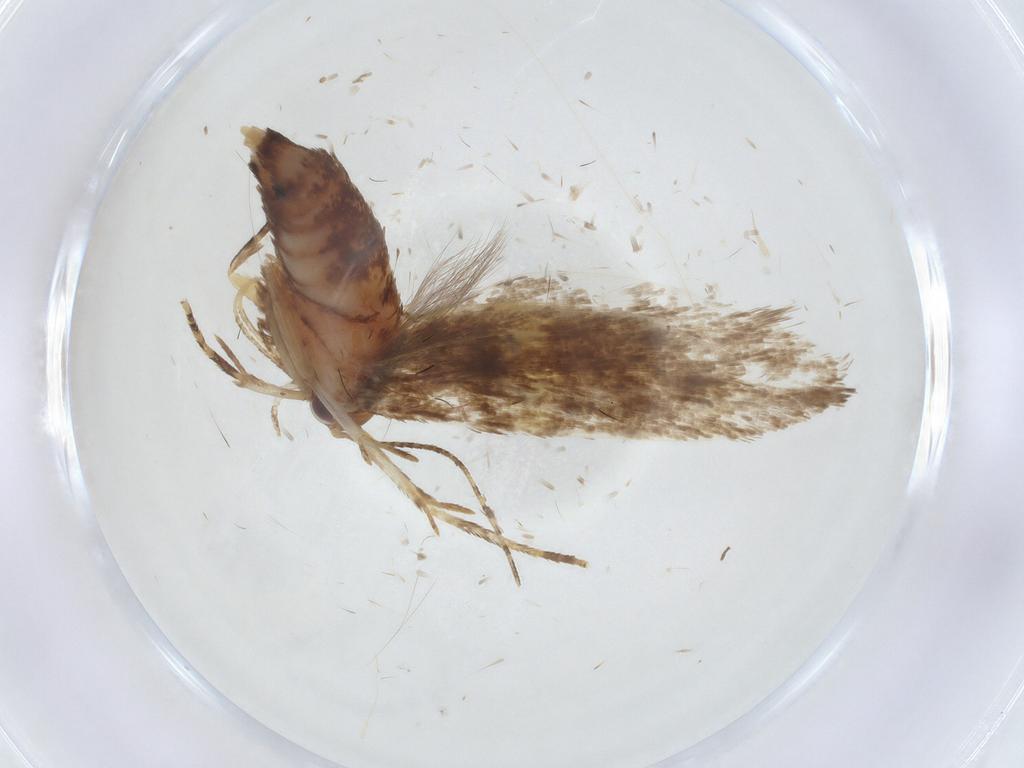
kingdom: Animalia
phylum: Arthropoda
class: Insecta
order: Lepidoptera
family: Oecophoridae
